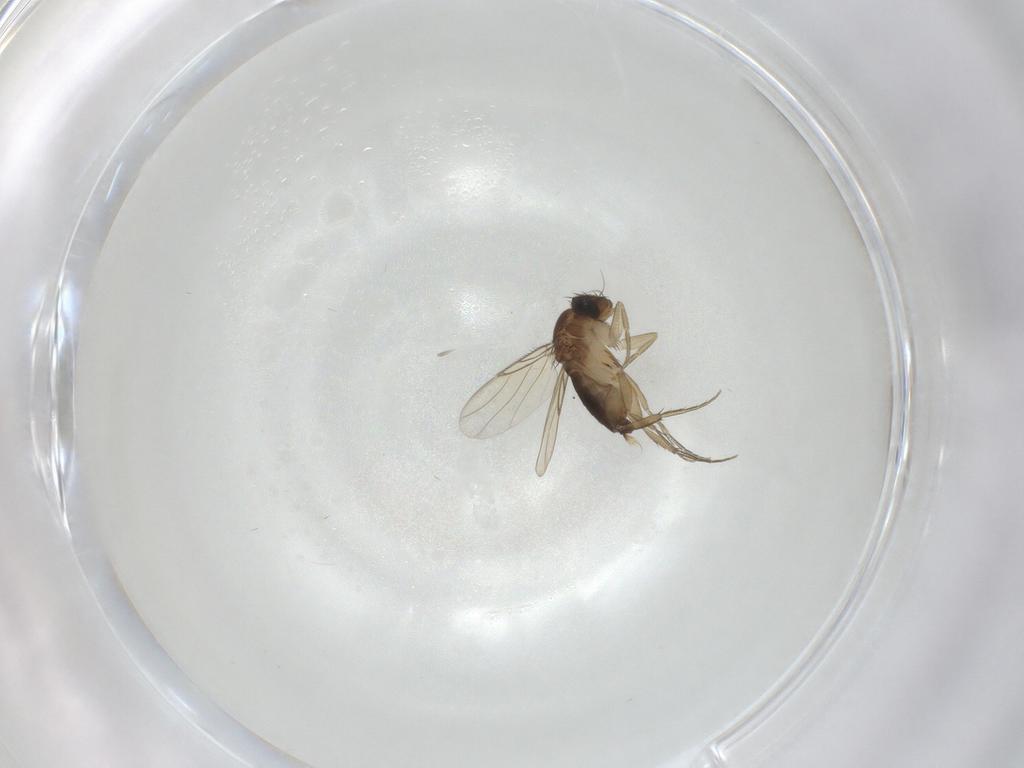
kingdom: Animalia
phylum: Arthropoda
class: Insecta
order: Diptera
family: Phoridae
